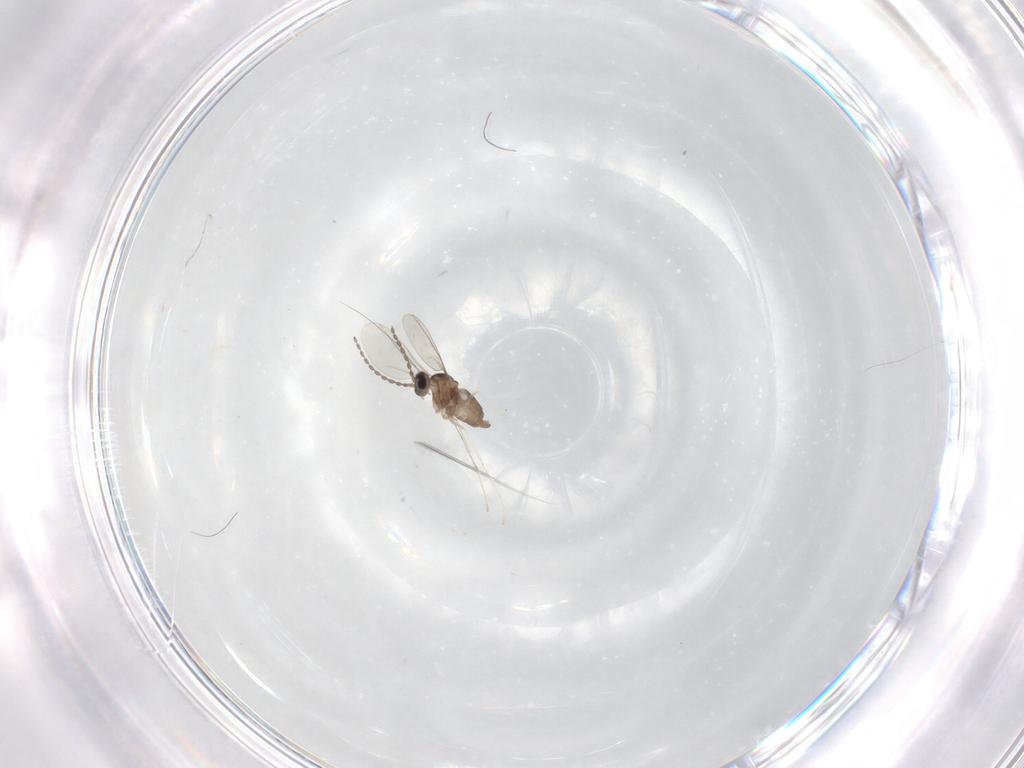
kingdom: Animalia
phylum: Arthropoda
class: Insecta
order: Diptera
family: Cecidomyiidae
